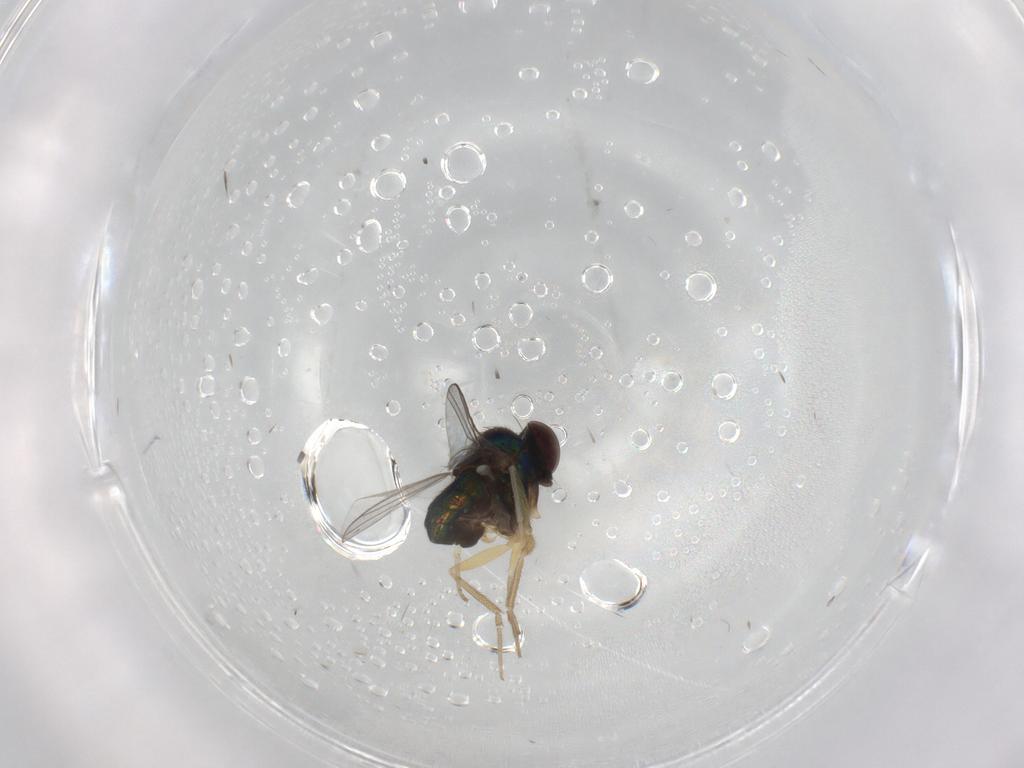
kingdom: Animalia
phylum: Arthropoda
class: Insecta
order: Diptera
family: Dolichopodidae
